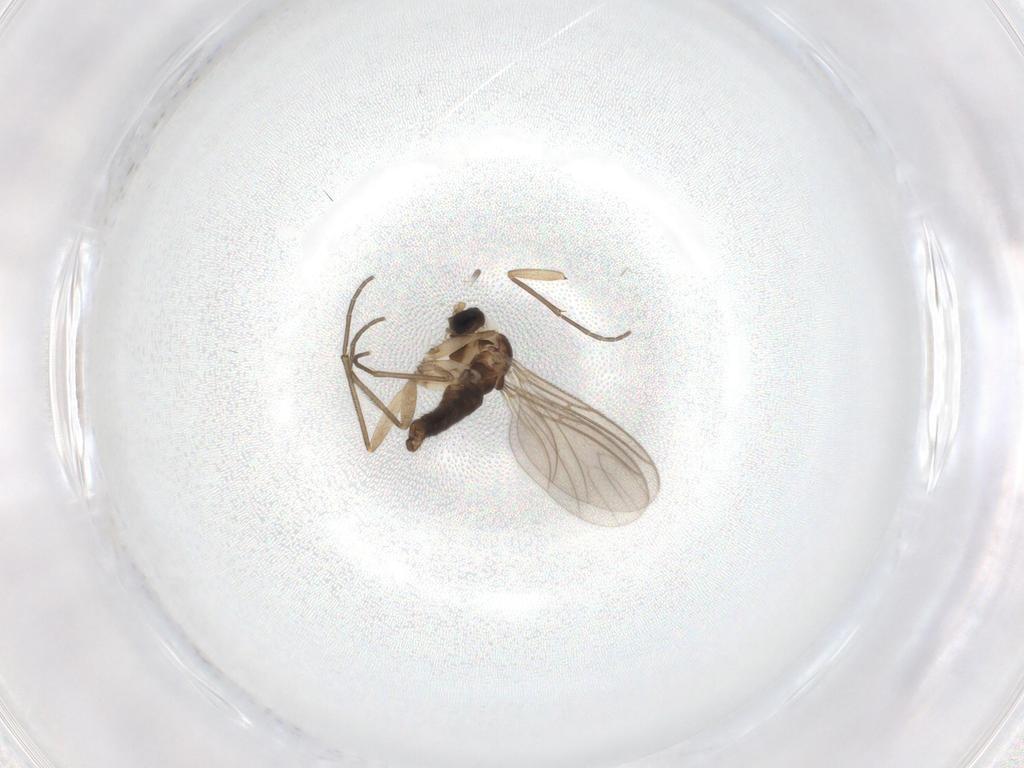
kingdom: Animalia
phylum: Arthropoda
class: Insecta
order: Diptera
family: Sciaridae
